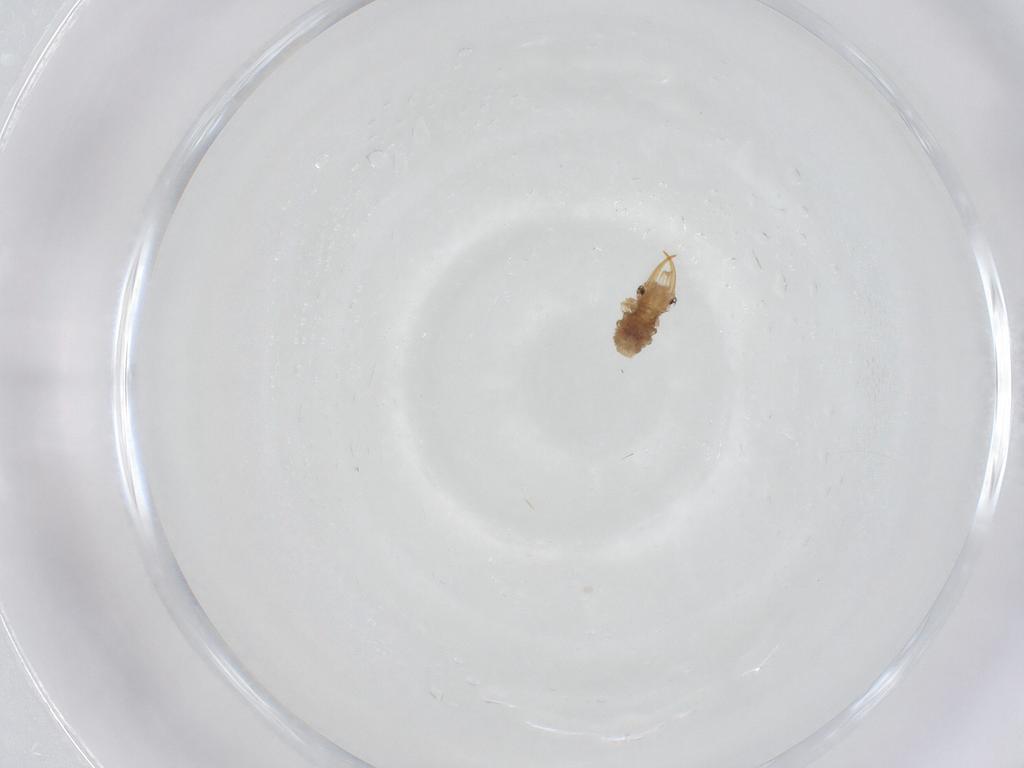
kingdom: Animalia
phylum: Arthropoda
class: Insecta
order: Neuroptera
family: Chrysopidae
